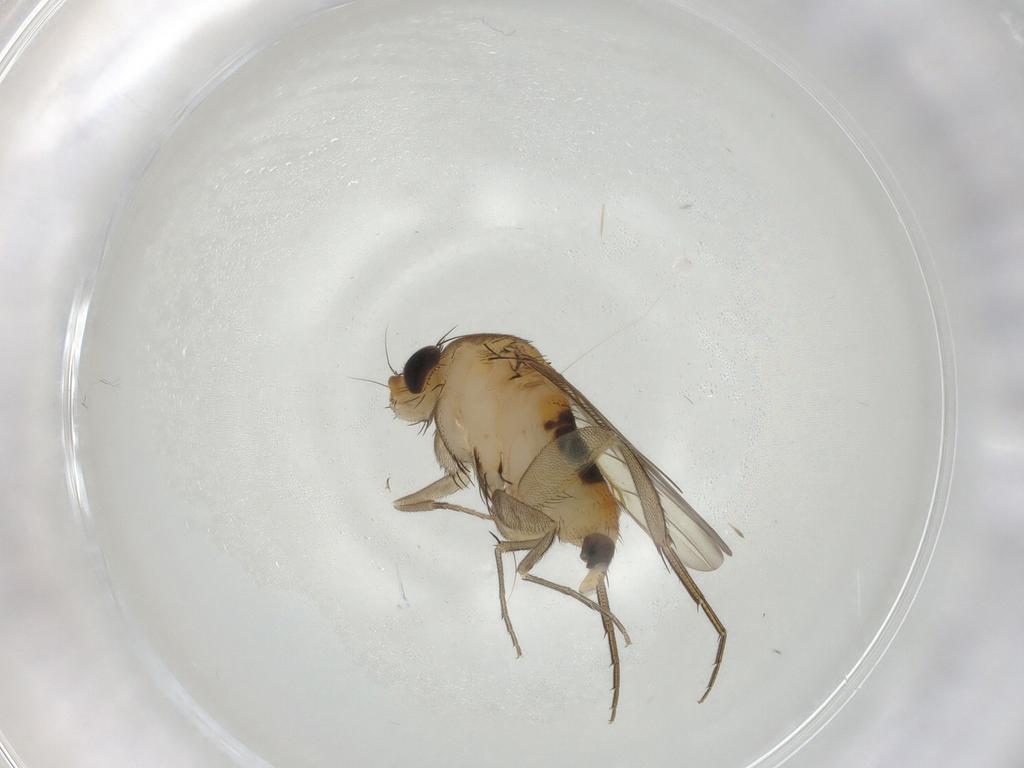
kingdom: Animalia
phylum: Arthropoda
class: Insecta
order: Diptera
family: Phoridae
